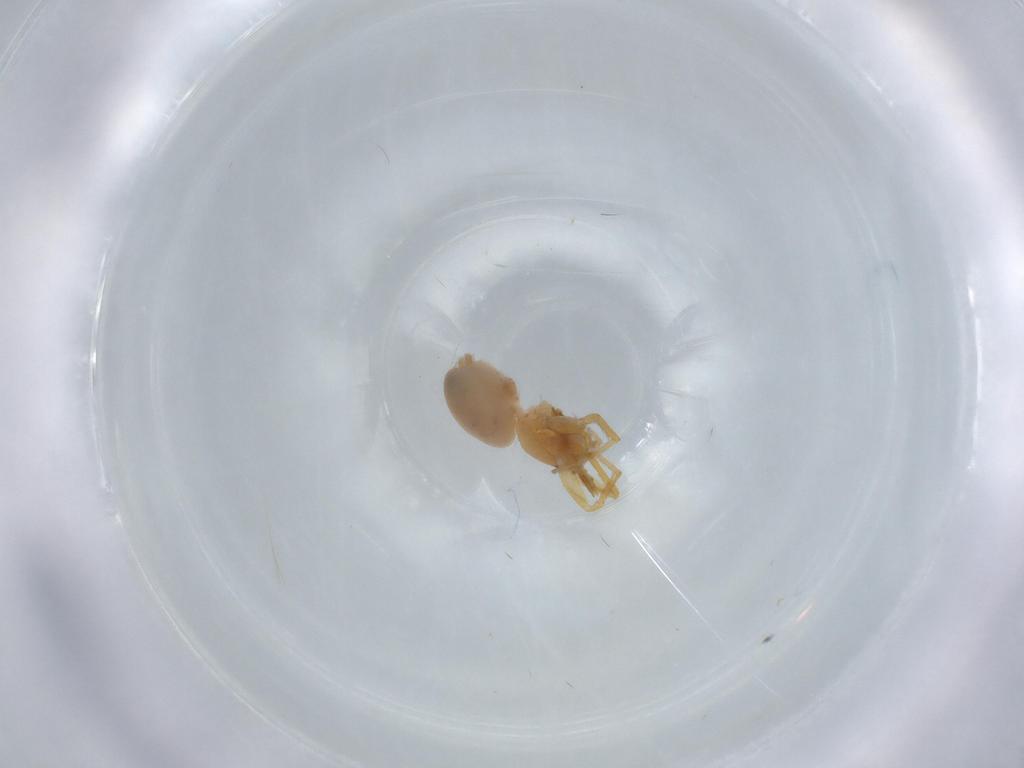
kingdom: Animalia
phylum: Arthropoda
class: Arachnida
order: Araneae
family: Oonopidae
